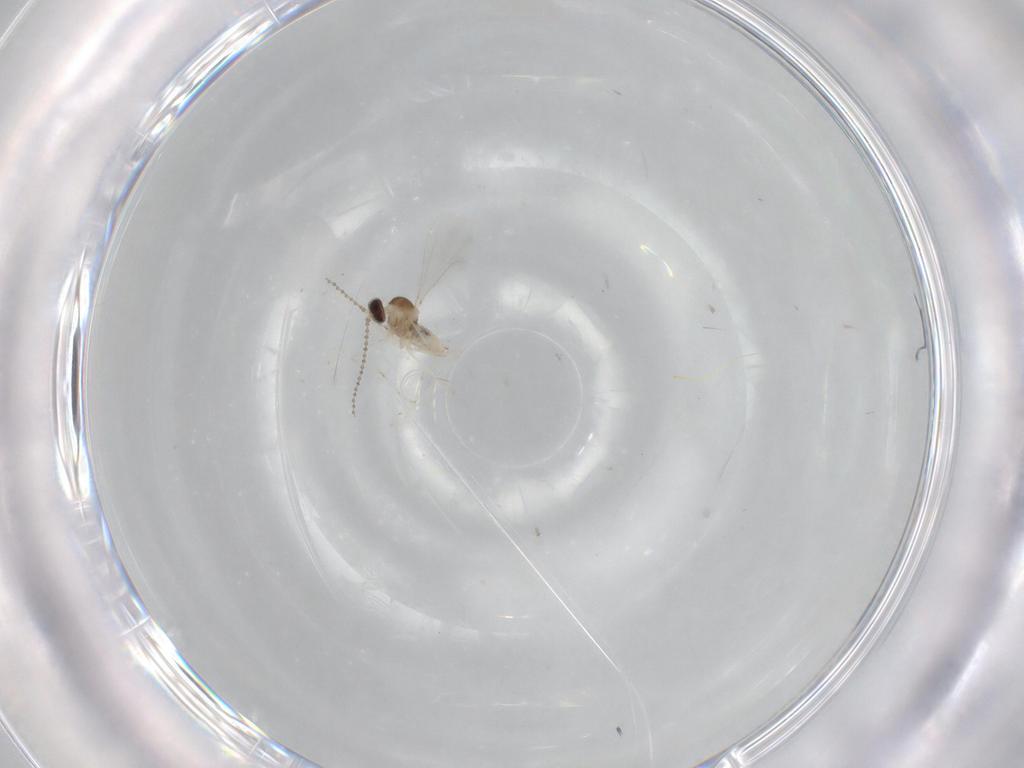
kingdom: Animalia
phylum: Arthropoda
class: Insecta
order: Diptera
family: Cecidomyiidae
